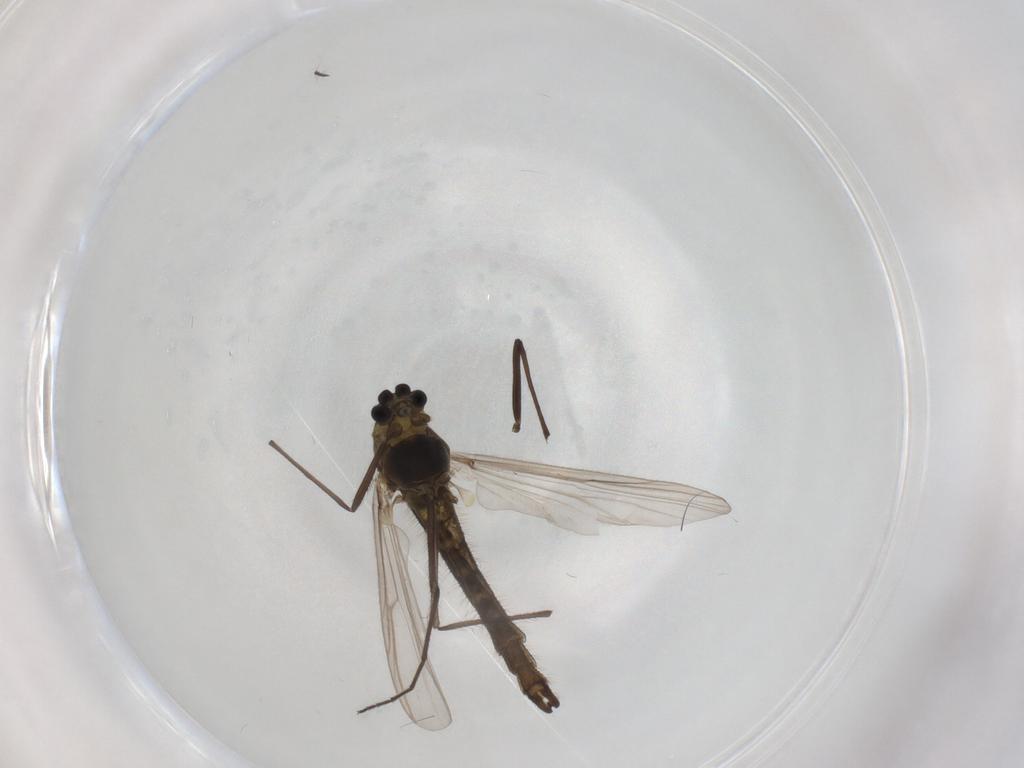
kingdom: Animalia
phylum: Arthropoda
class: Insecta
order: Diptera
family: Chironomidae
